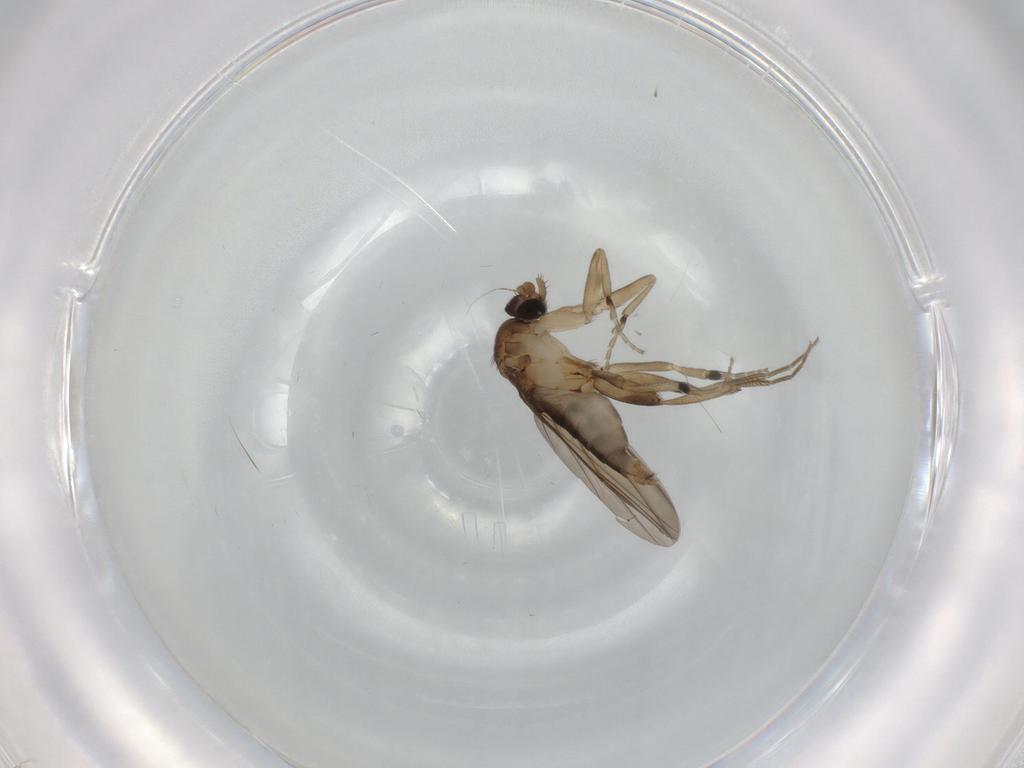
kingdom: Animalia
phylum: Arthropoda
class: Insecta
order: Diptera
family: Phoridae
